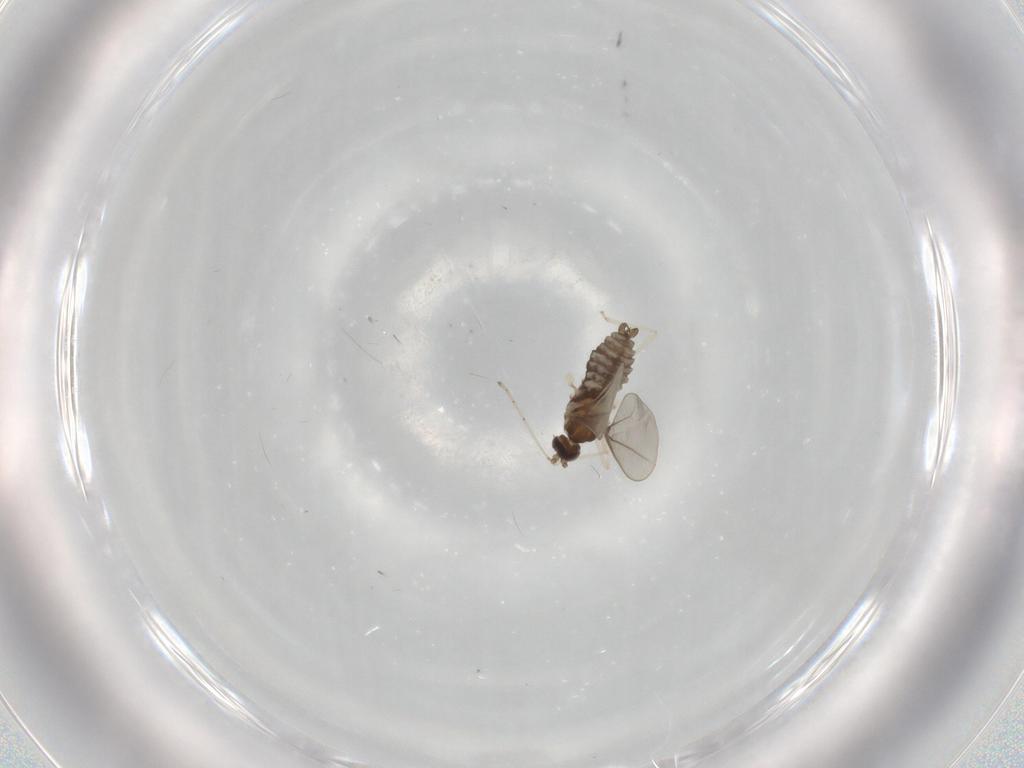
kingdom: Animalia
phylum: Arthropoda
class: Insecta
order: Diptera
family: Cecidomyiidae
